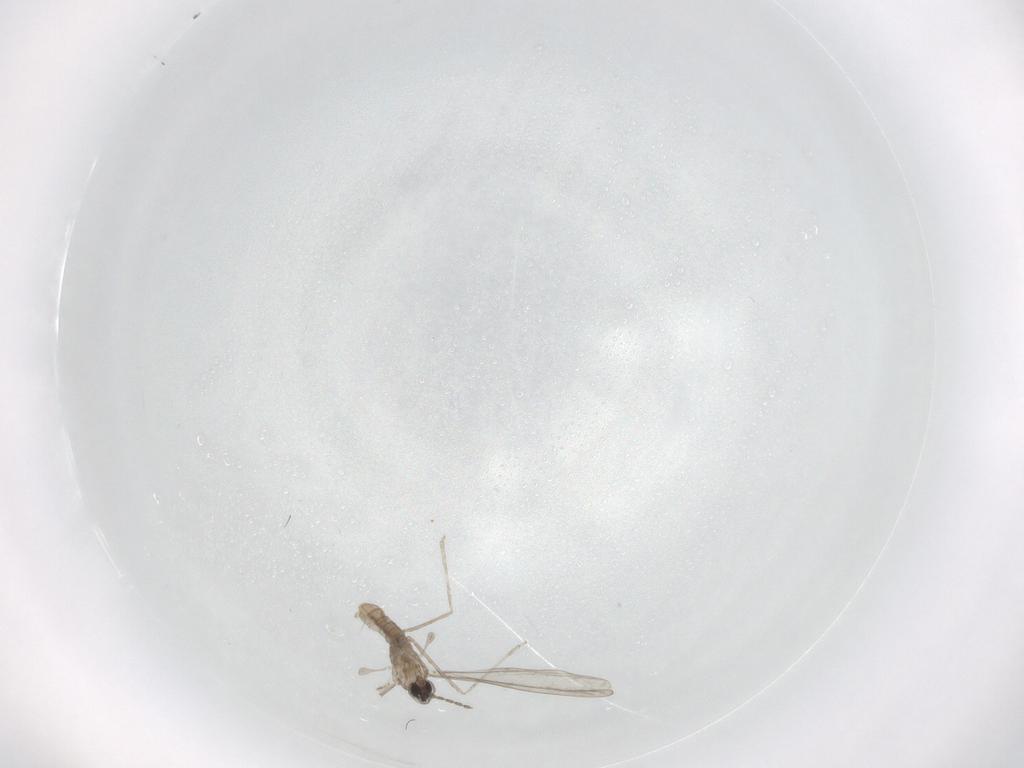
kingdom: Animalia
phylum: Arthropoda
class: Insecta
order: Diptera
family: Cecidomyiidae
